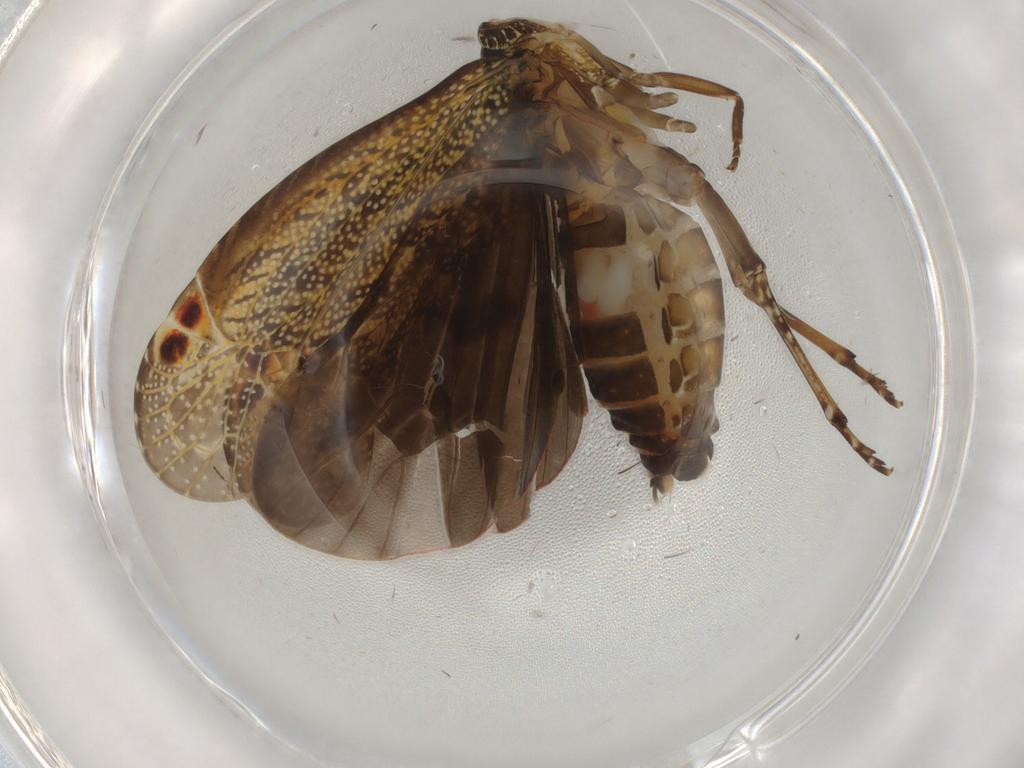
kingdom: Animalia
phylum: Arthropoda
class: Insecta
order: Hemiptera
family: Achilidae
